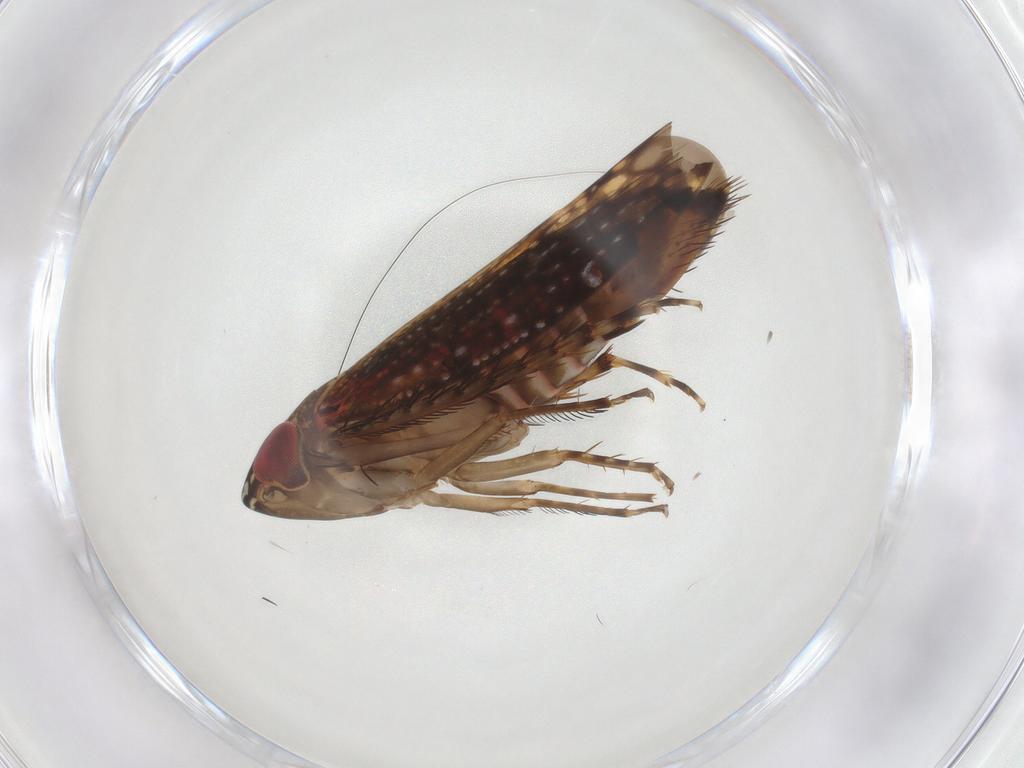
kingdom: Animalia
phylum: Arthropoda
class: Insecta
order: Hemiptera
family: Cicadellidae
